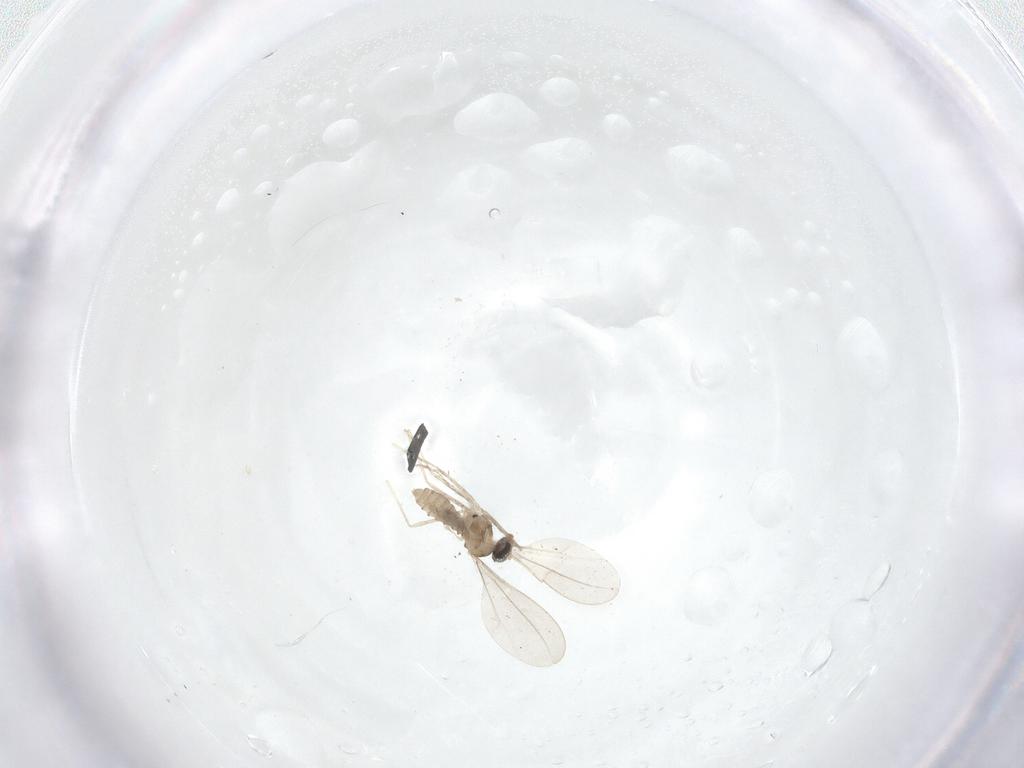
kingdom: Animalia
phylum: Arthropoda
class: Insecta
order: Diptera
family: Cecidomyiidae
